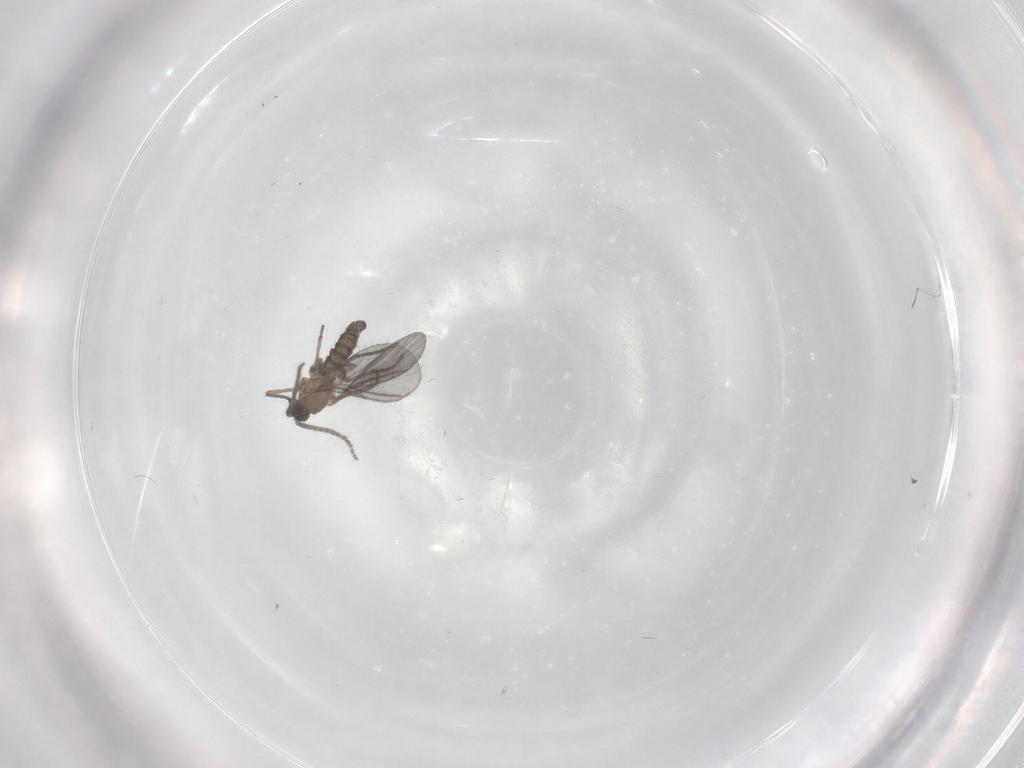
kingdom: Animalia
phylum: Arthropoda
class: Insecta
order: Diptera
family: Sciaridae
